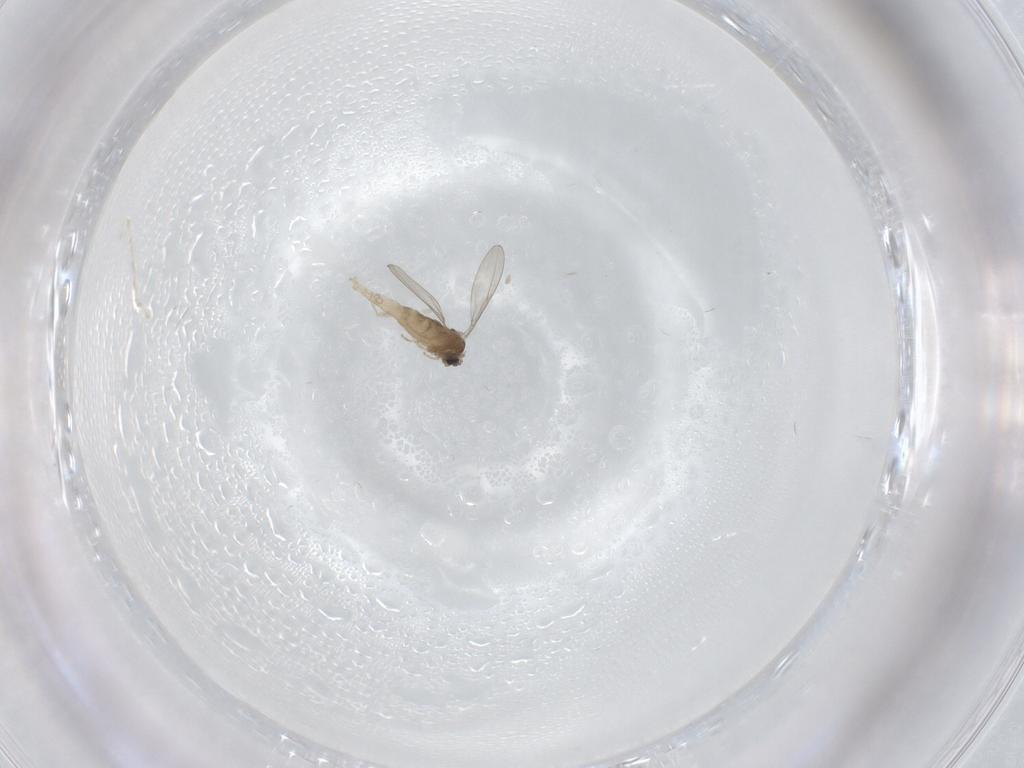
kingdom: Animalia
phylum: Arthropoda
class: Insecta
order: Diptera
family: Cecidomyiidae
